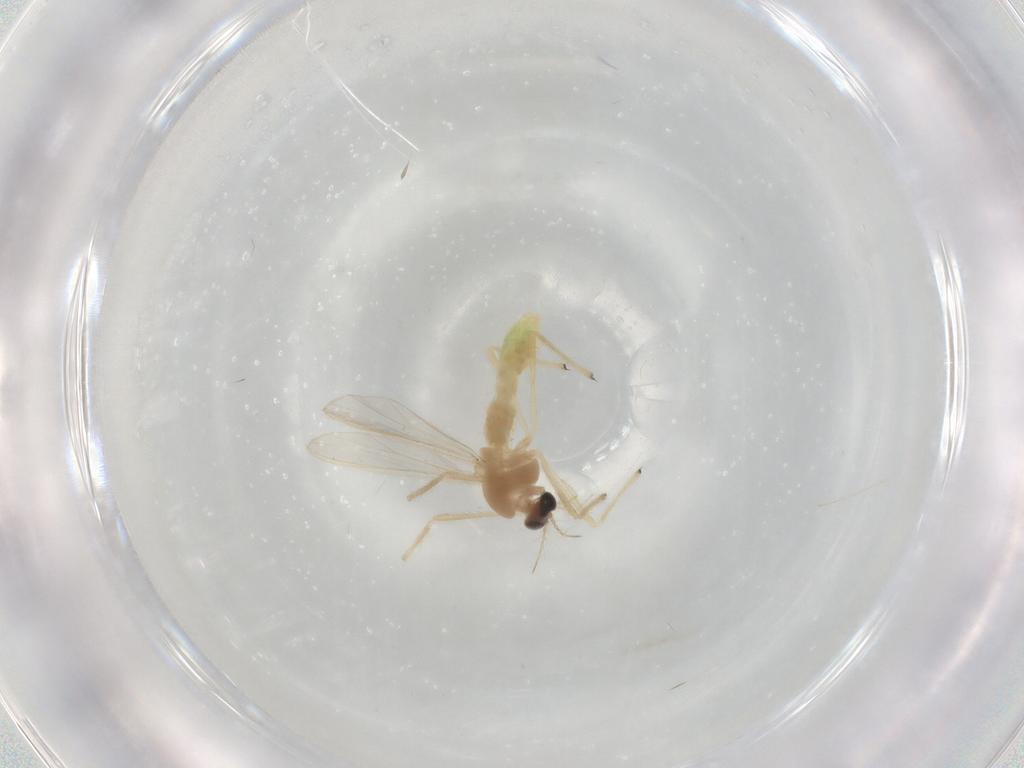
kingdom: Animalia
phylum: Arthropoda
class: Insecta
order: Diptera
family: Chironomidae
